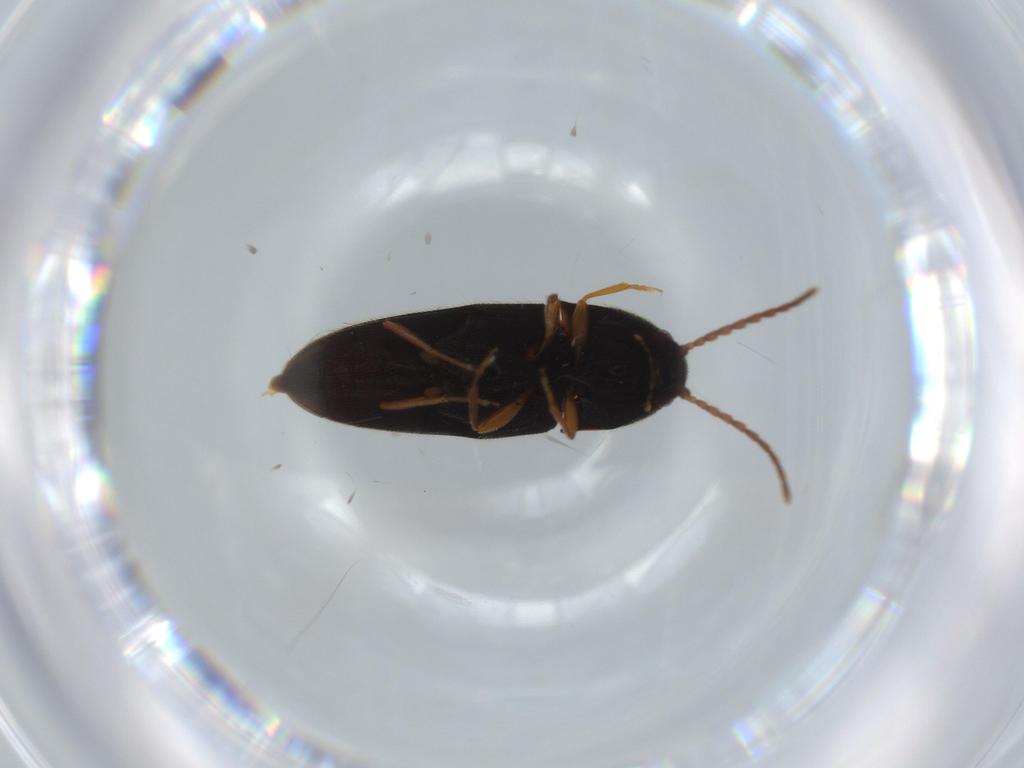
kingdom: Animalia
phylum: Arthropoda
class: Insecta
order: Coleoptera
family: Elateridae
